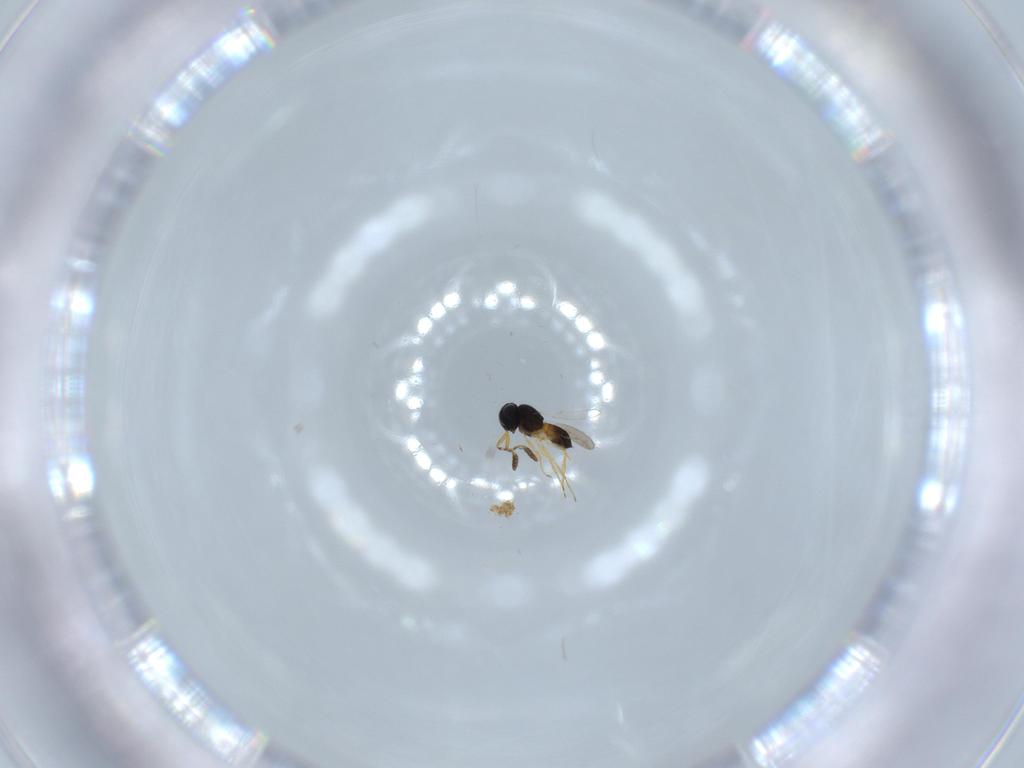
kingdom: Animalia
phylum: Arthropoda
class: Insecta
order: Hymenoptera
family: Scelionidae
